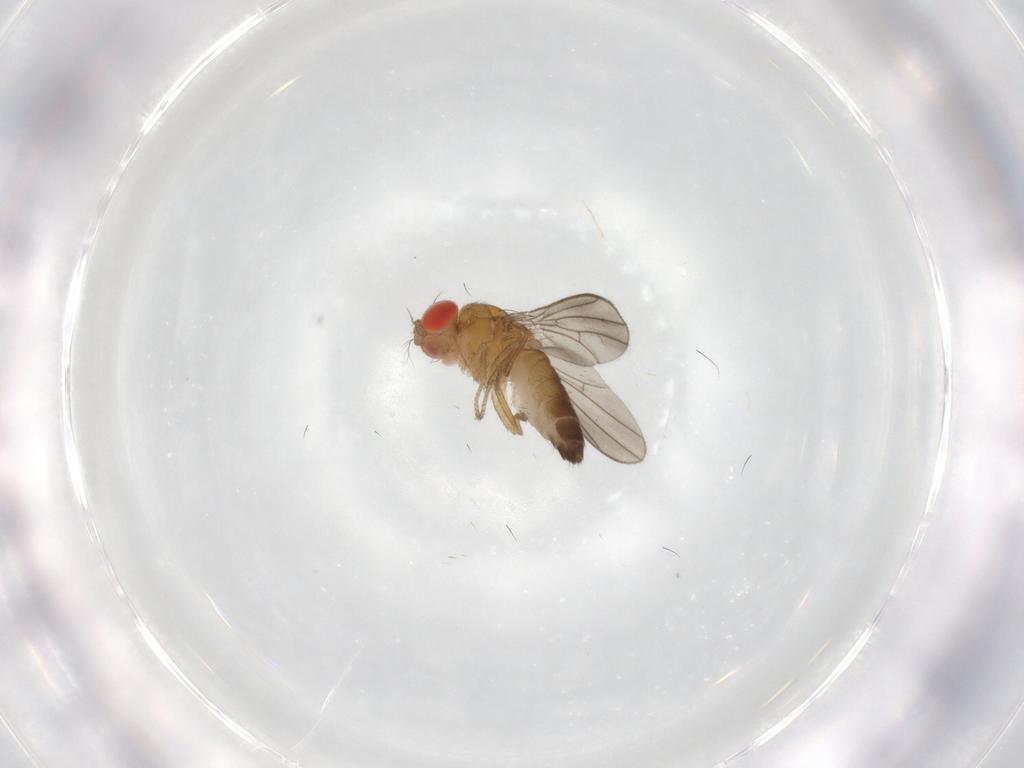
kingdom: Animalia
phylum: Arthropoda
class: Insecta
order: Diptera
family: Drosophilidae
